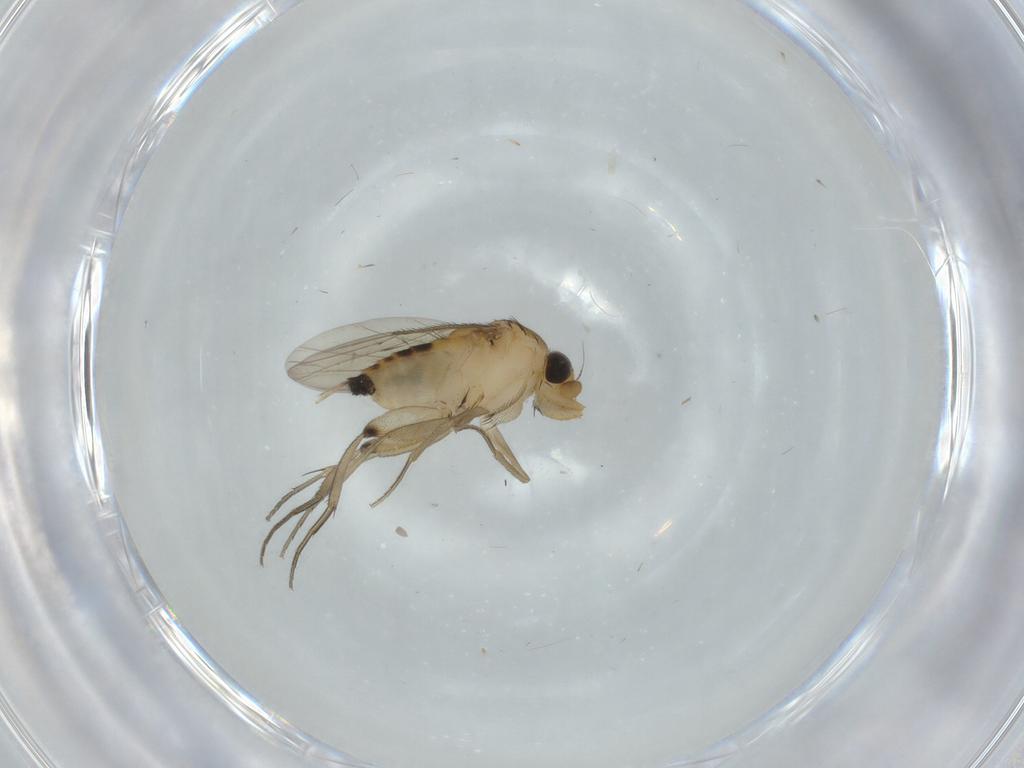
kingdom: Animalia
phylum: Arthropoda
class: Insecta
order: Diptera
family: Phoridae
